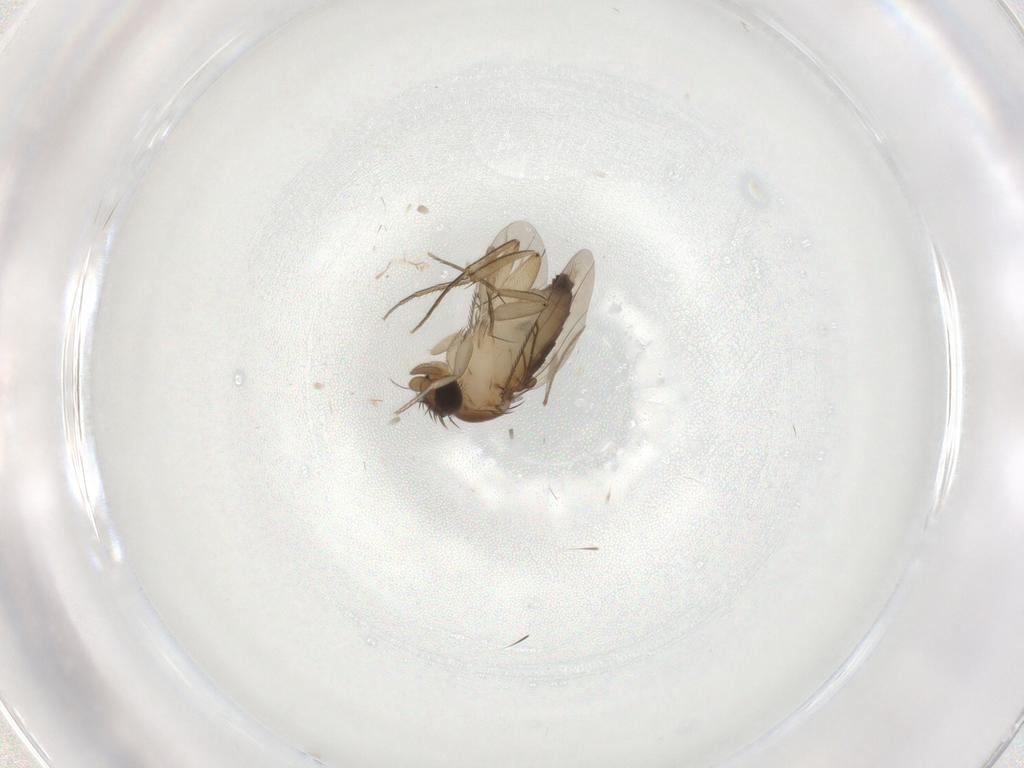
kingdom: Animalia
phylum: Arthropoda
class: Insecta
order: Diptera
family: Phoridae
